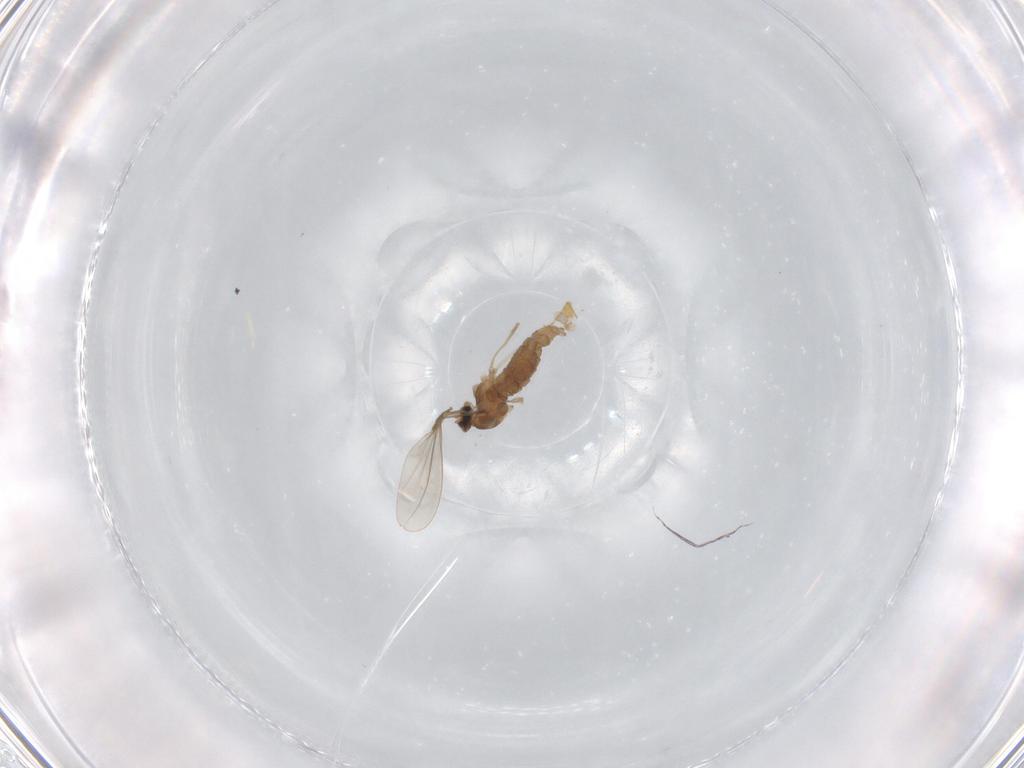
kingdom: Animalia
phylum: Arthropoda
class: Insecta
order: Diptera
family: Cecidomyiidae
